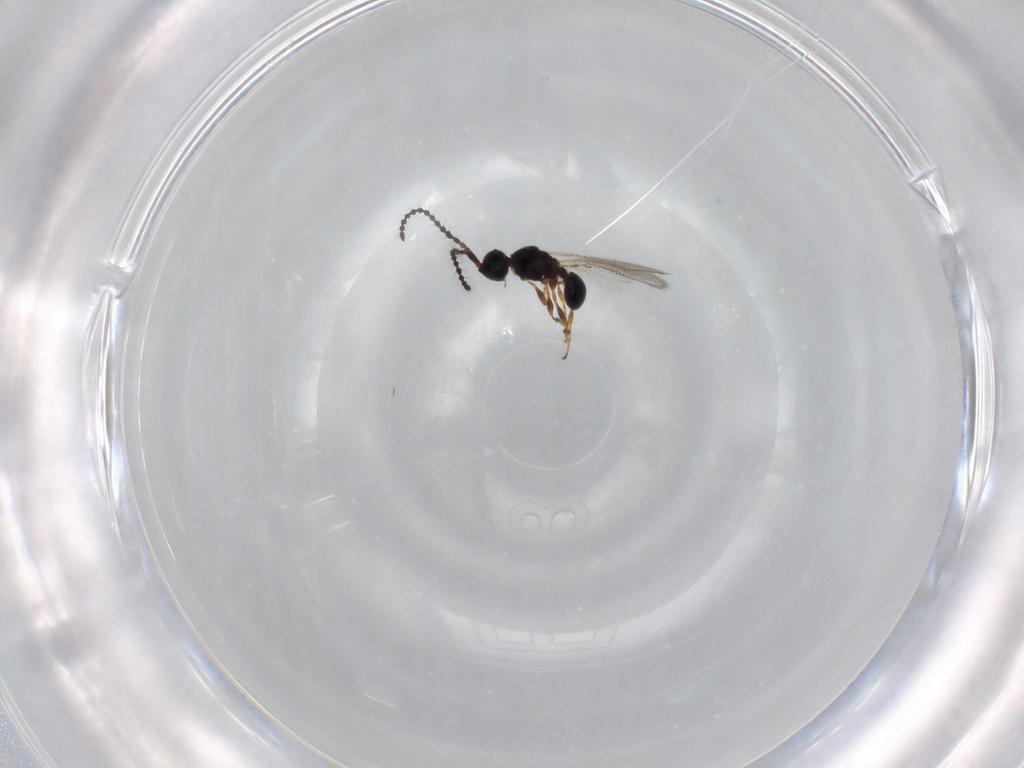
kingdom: Animalia
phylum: Arthropoda
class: Insecta
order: Hymenoptera
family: Diapriidae
